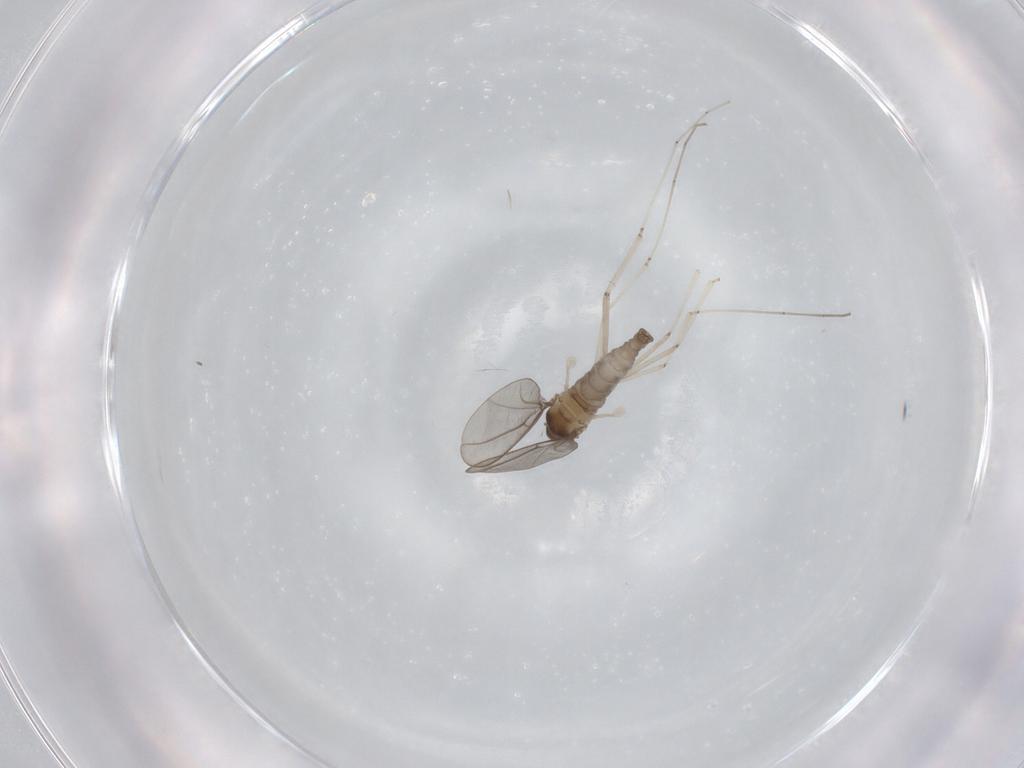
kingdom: Animalia
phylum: Arthropoda
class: Insecta
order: Diptera
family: Cecidomyiidae
